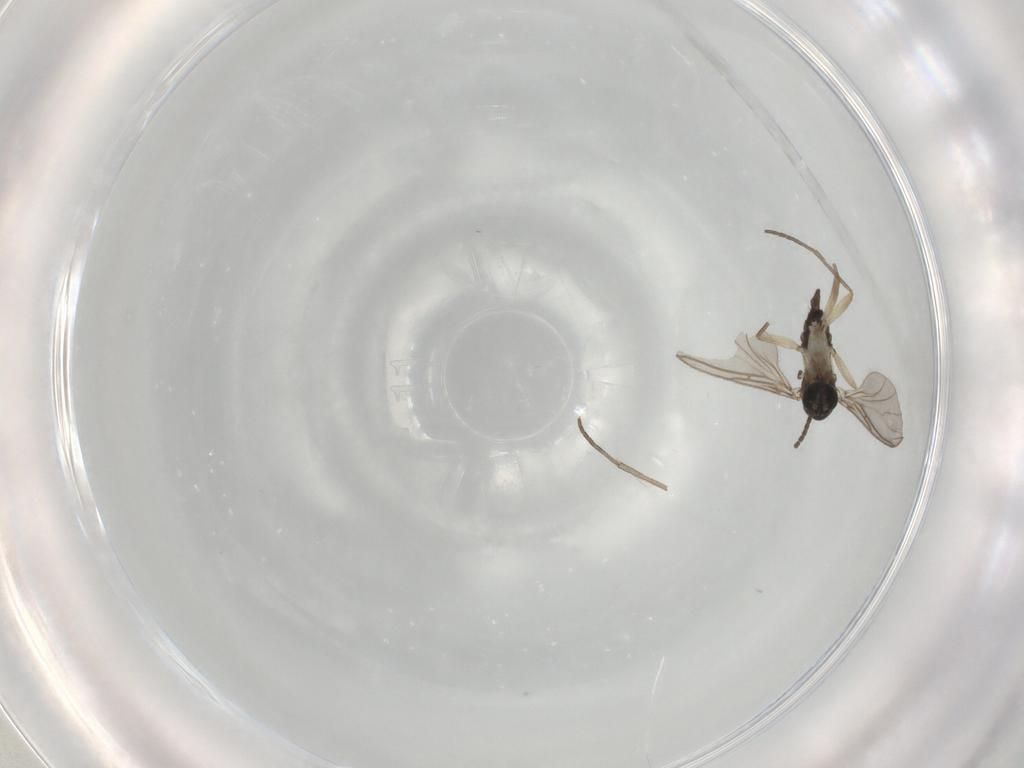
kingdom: Animalia
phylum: Arthropoda
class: Insecta
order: Diptera
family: Sciaridae
